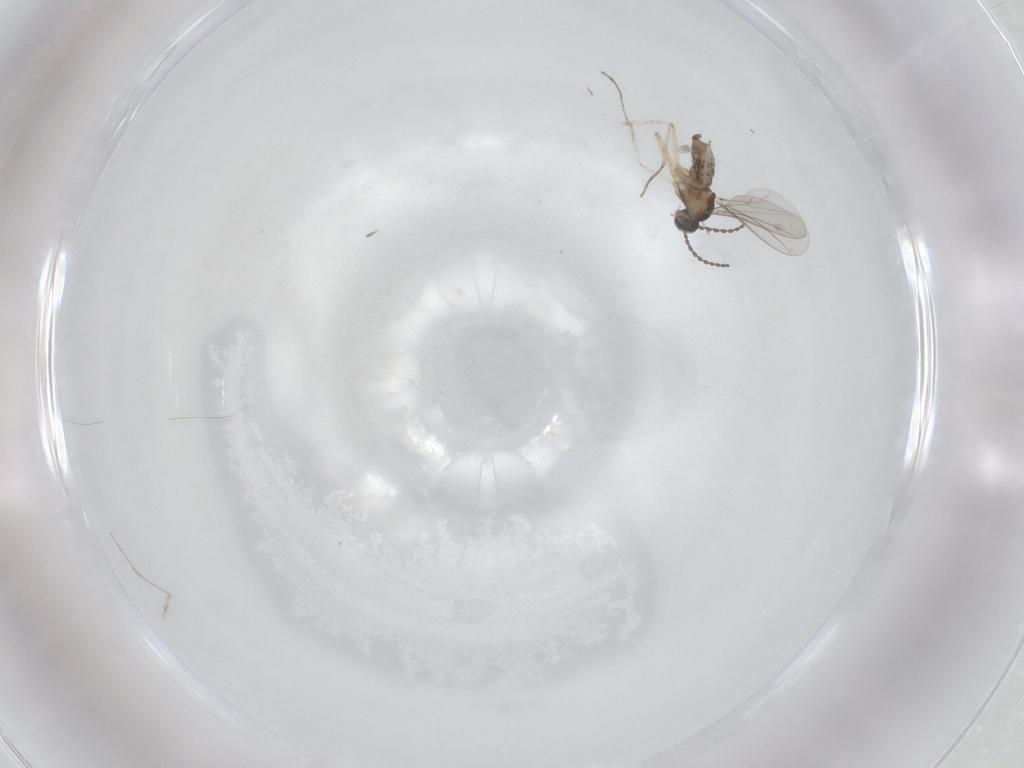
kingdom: Animalia
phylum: Arthropoda
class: Insecta
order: Diptera
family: Cecidomyiidae
